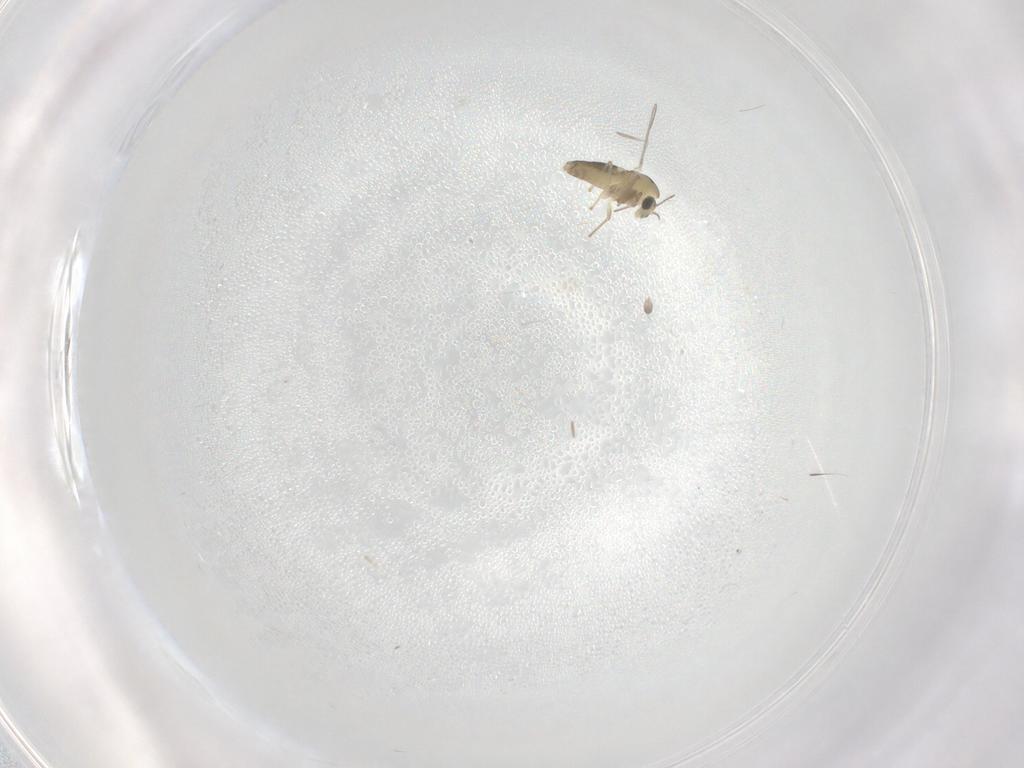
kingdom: Animalia
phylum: Arthropoda
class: Insecta
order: Diptera
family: Chironomidae
